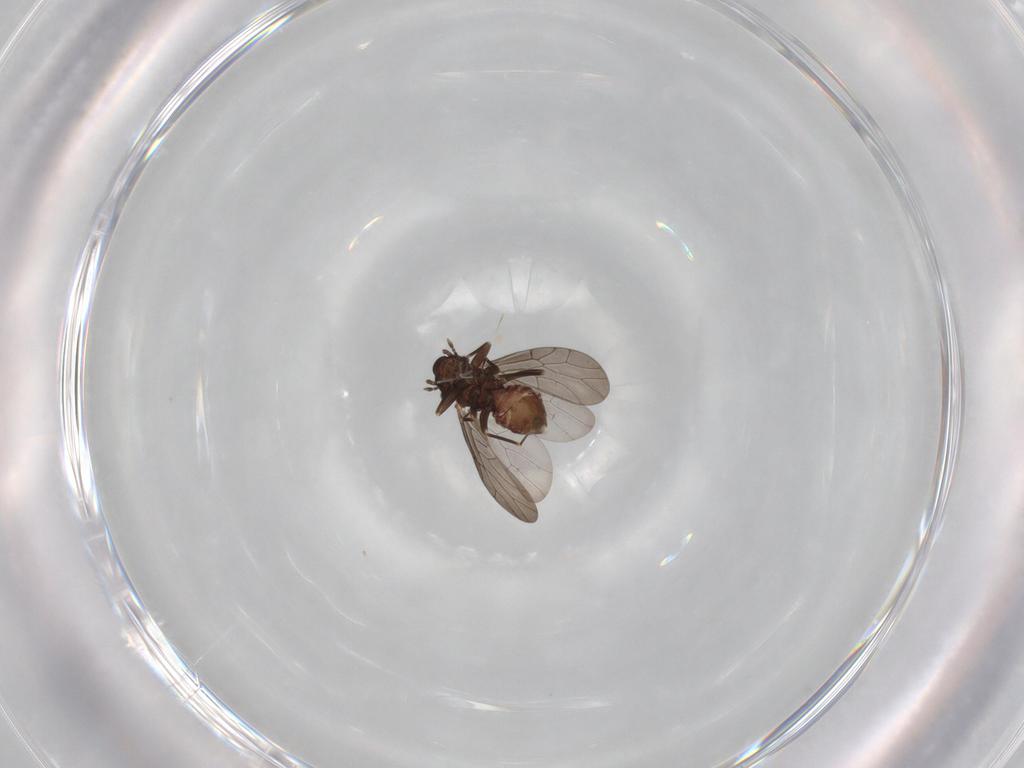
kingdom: Animalia
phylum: Arthropoda
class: Insecta
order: Psocodea
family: Lepidopsocidae
